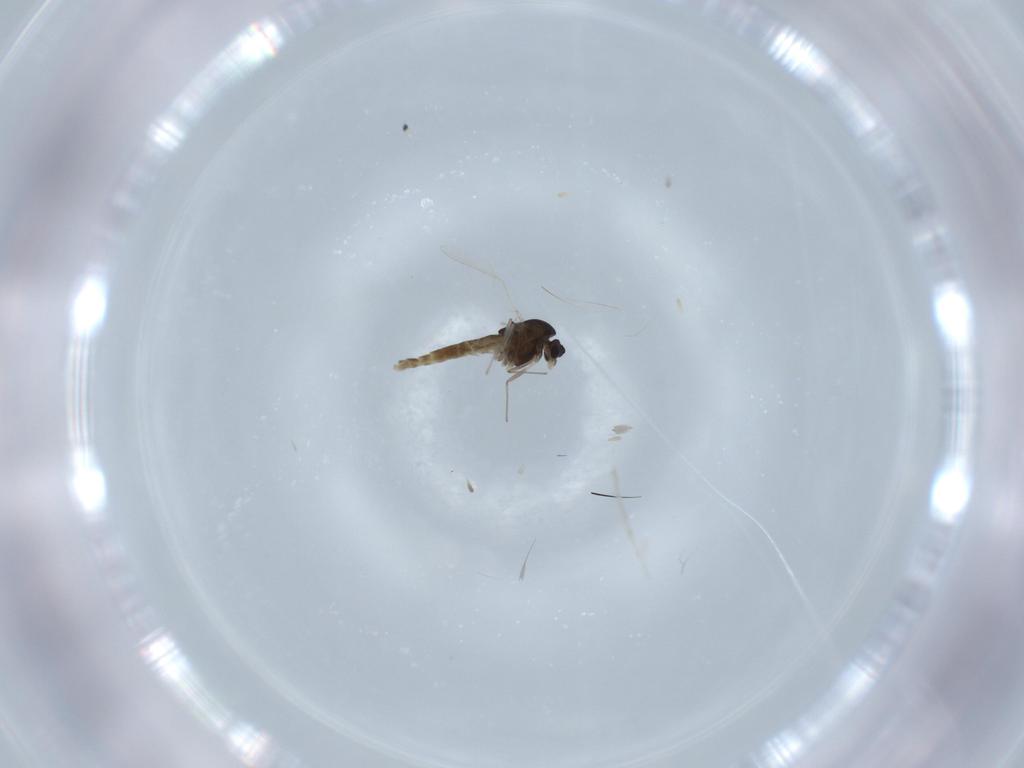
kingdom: Animalia
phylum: Arthropoda
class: Insecta
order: Diptera
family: Chironomidae
